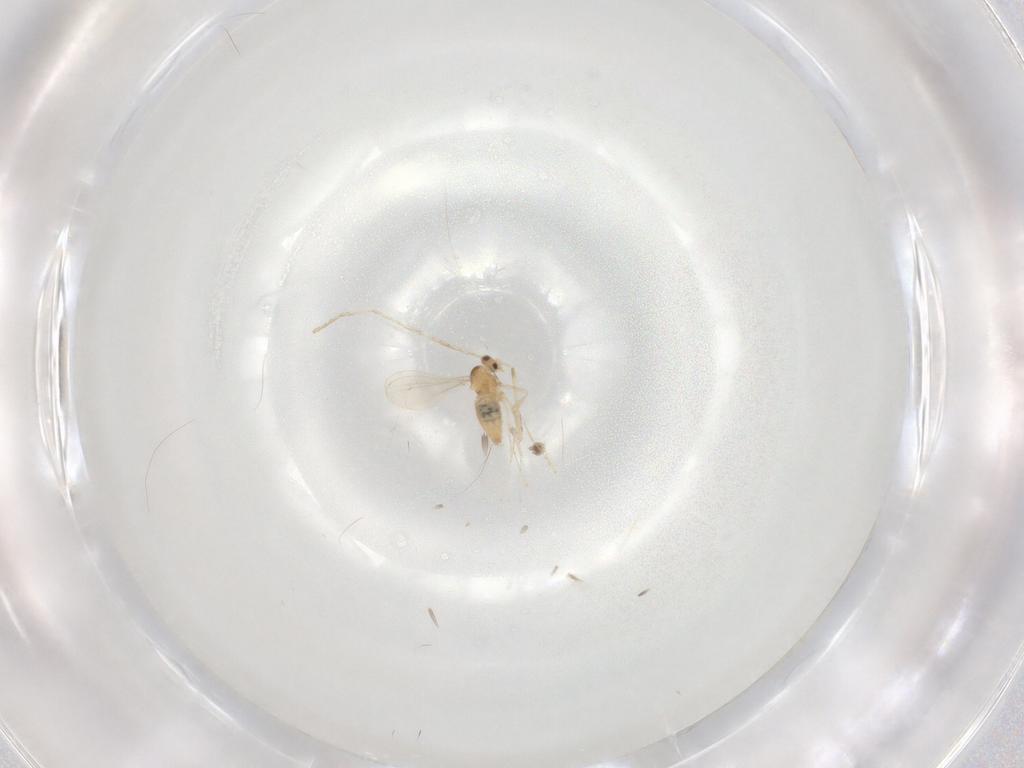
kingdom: Animalia
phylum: Arthropoda
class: Insecta
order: Diptera
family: Cecidomyiidae
